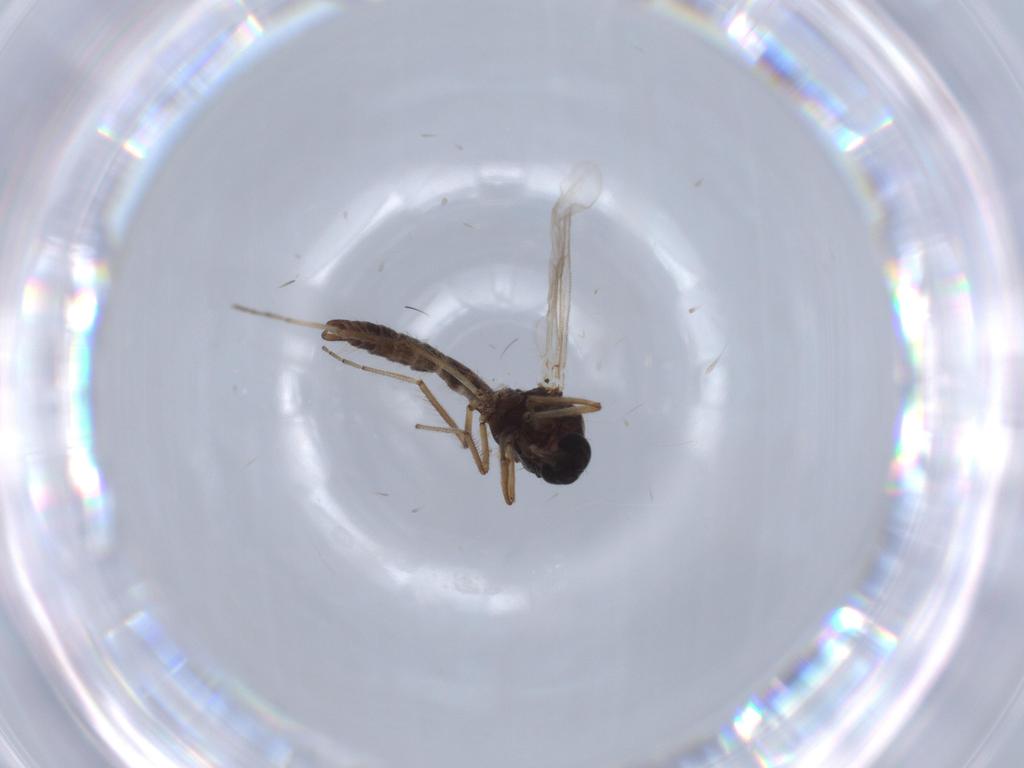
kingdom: Animalia
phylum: Arthropoda
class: Insecta
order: Diptera
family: Ceratopogonidae
